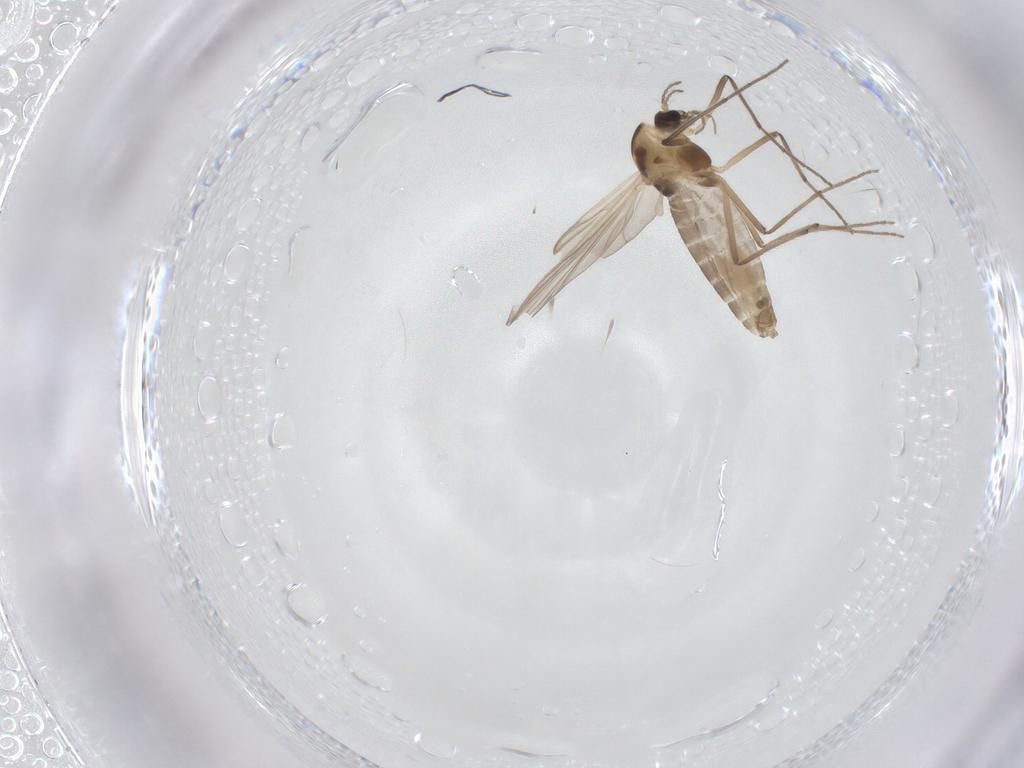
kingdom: Animalia
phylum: Arthropoda
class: Insecta
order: Diptera
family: Chironomidae
